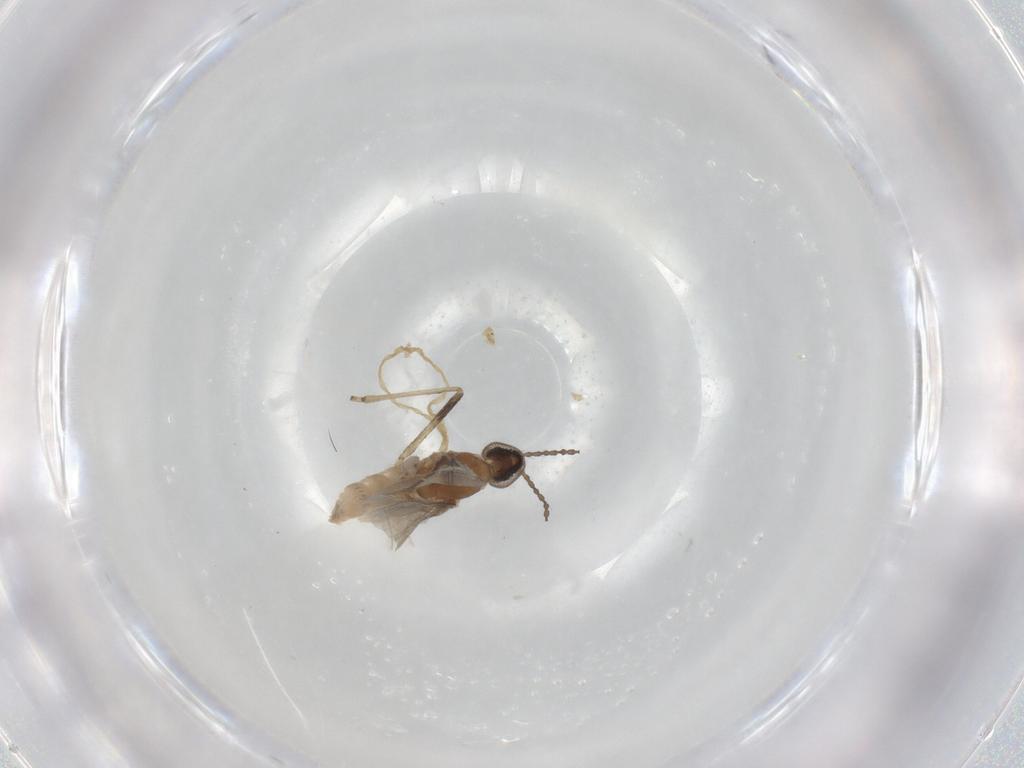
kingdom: Animalia
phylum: Arthropoda
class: Insecta
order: Diptera
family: Cecidomyiidae
